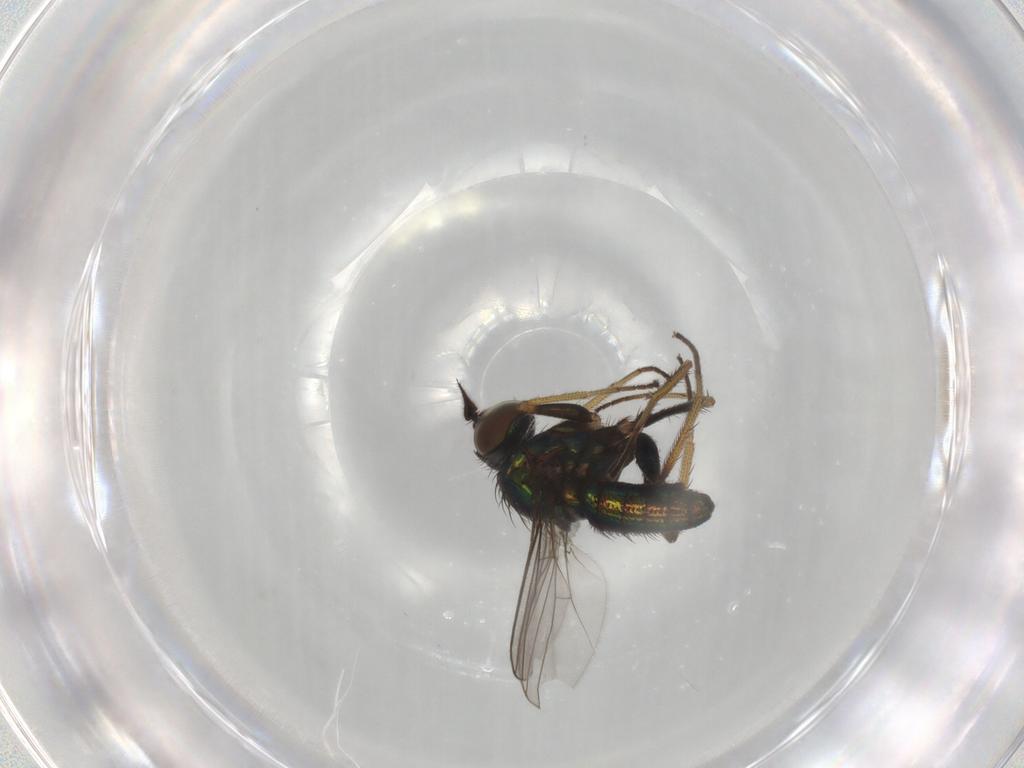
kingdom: Animalia
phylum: Arthropoda
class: Insecta
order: Diptera
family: Dolichopodidae
